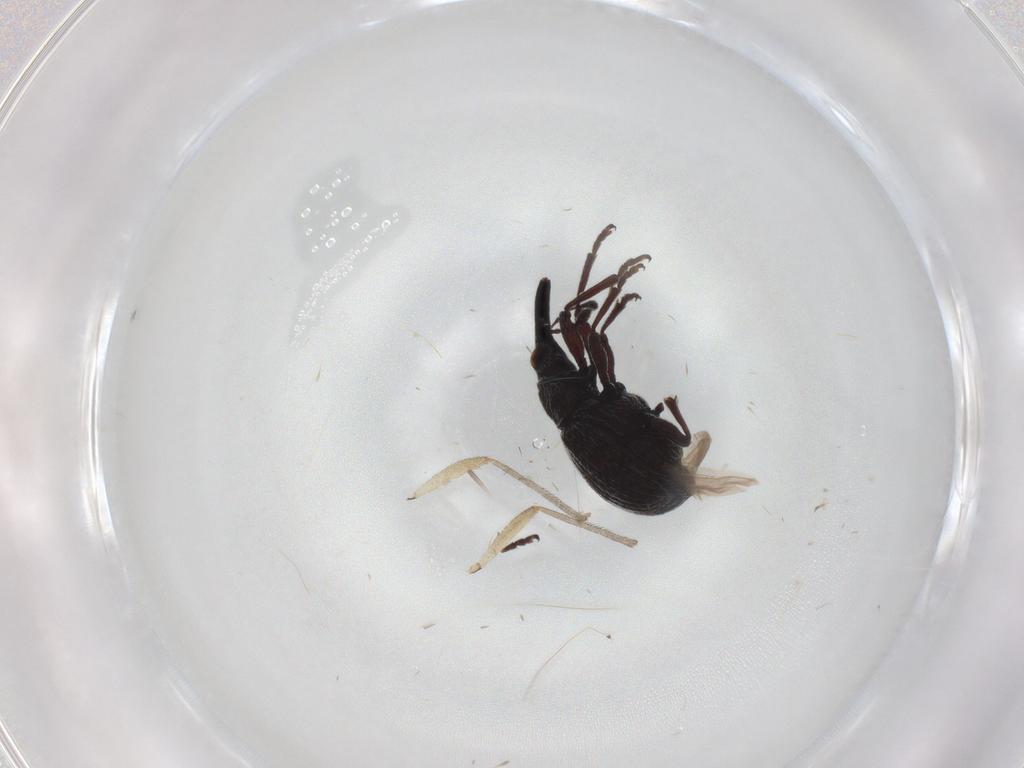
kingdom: Animalia
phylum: Arthropoda
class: Insecta
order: Coleoptera
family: Brentidae
